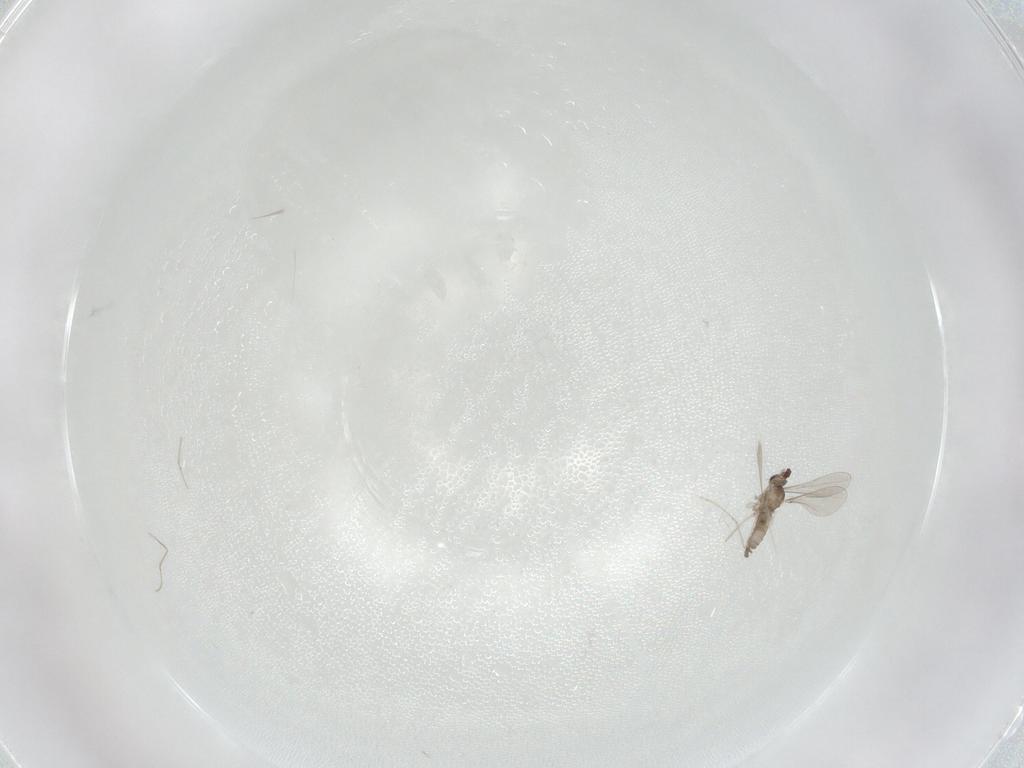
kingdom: Animalia
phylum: Arthropoda
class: Insecta
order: Diptera
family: Cecidomyiidae
